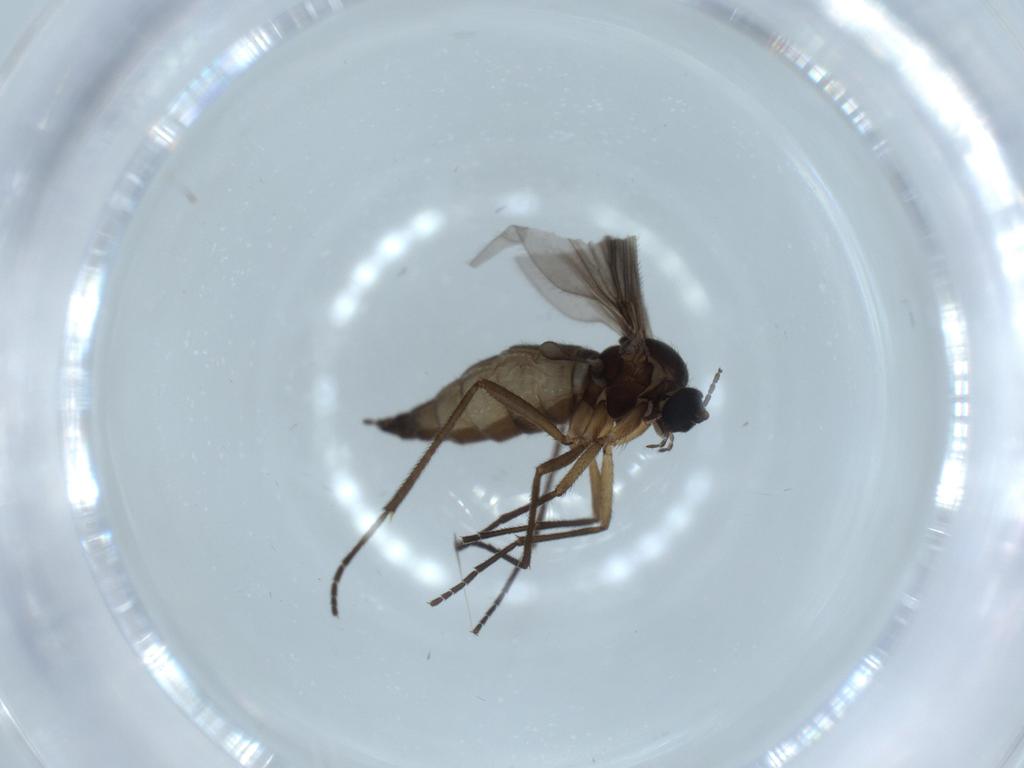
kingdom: Animalia
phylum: Arthropoda
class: Insecta
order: Diptera
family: Sciaridae
